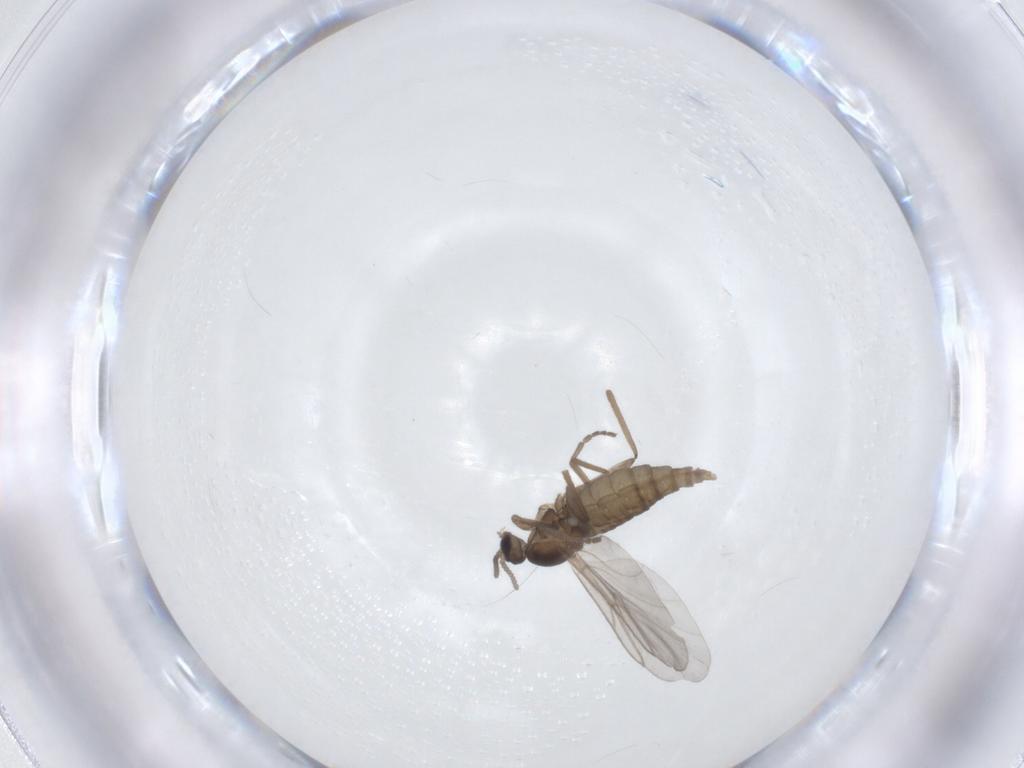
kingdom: Animalia
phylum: Arthropoda
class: Insecta
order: Diptera
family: Cecidomyiidae
